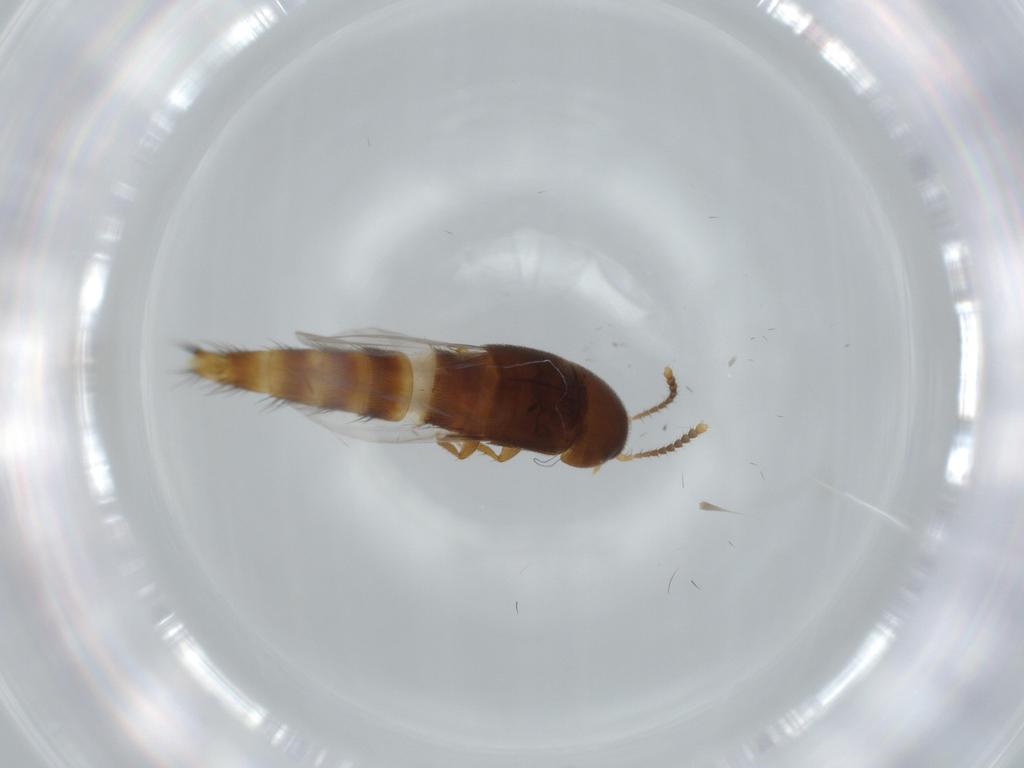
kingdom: Animalia
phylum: Arthropoda
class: Insecta
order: Coleoptera
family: Staphylinidae
